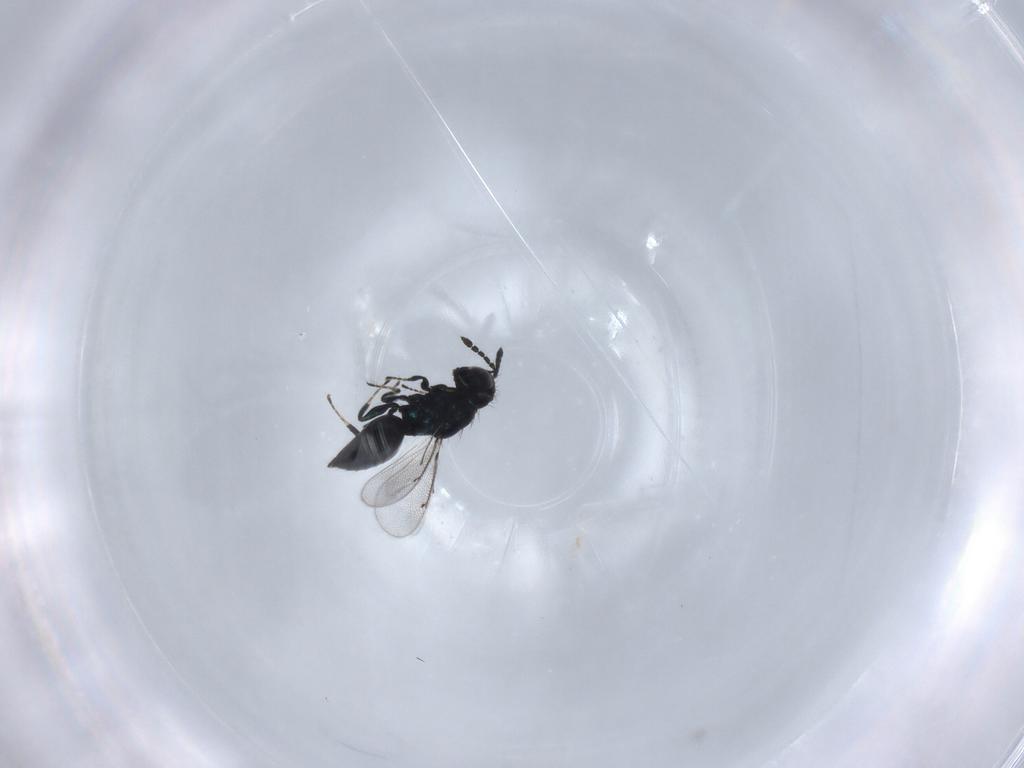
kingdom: Animalia
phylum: Arthropoda
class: Insecta
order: Hymenoptera
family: Eulophidae
